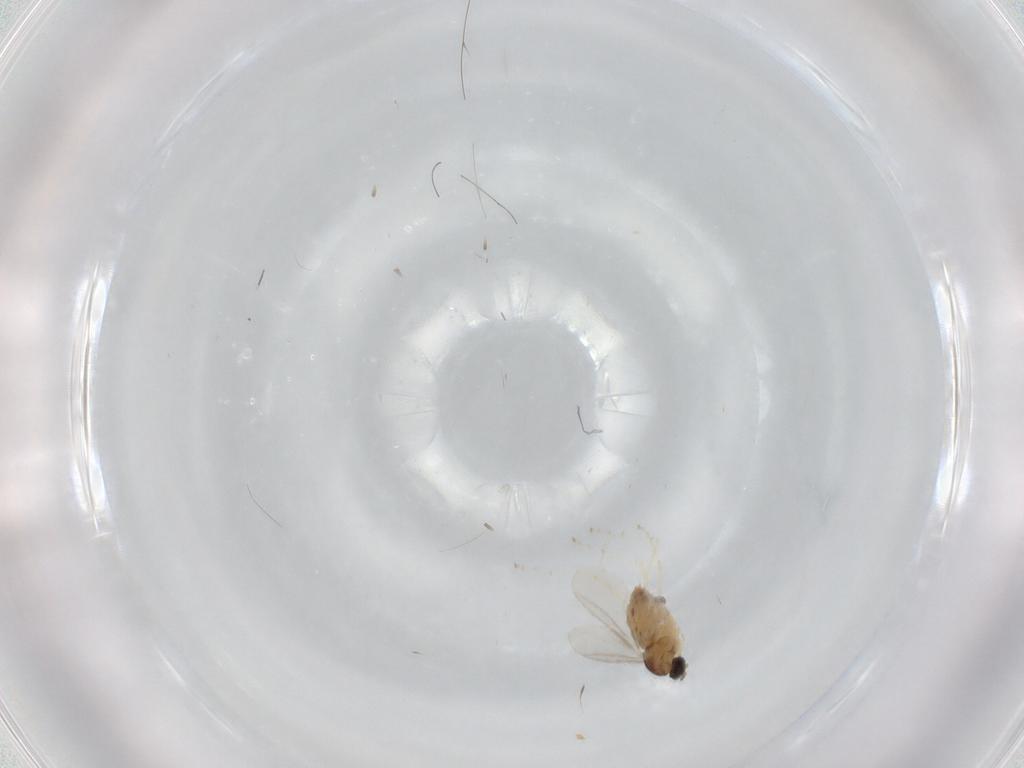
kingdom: Animalia
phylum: Arthropoda
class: Insecta
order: Diptera
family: Cecidomyiidae
